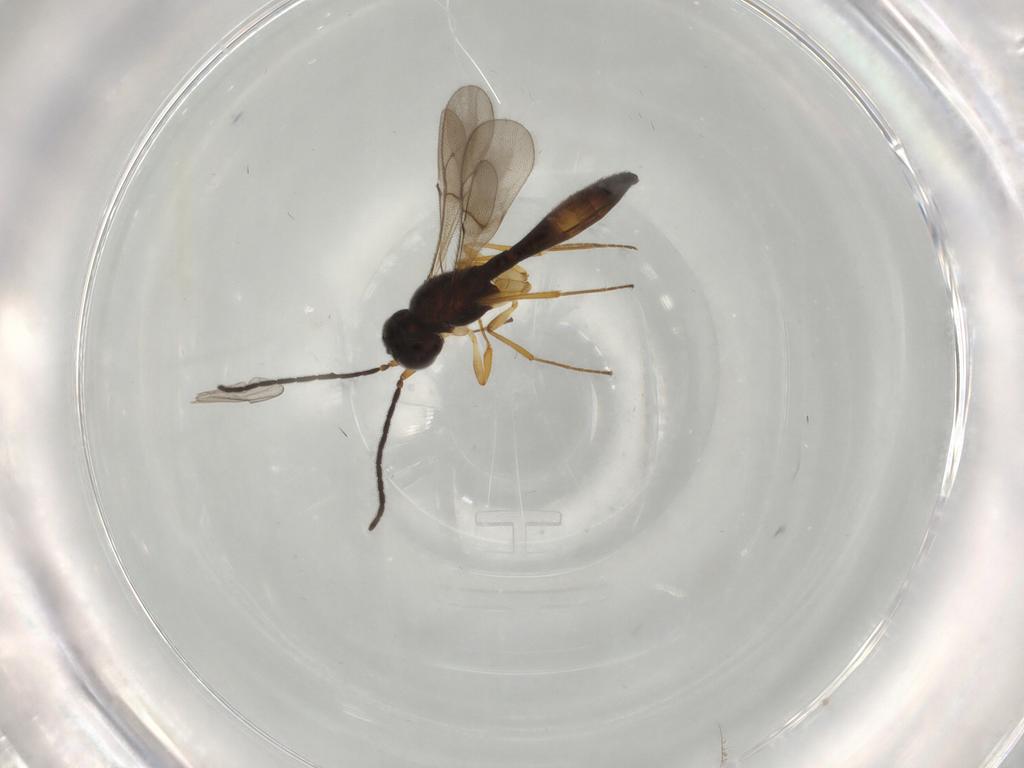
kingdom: Animalia
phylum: Arthropoda
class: Insecta
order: Hymenoptera
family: Scelionidae
